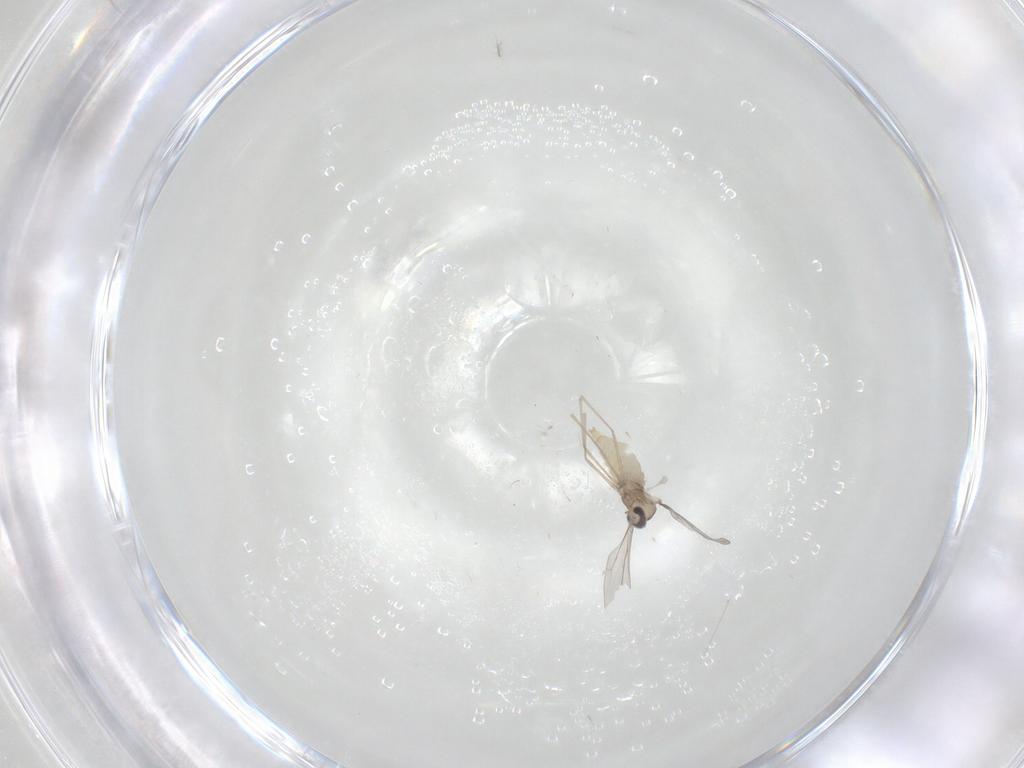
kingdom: Animalia
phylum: Arthropoda
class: Insecta
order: Diptera
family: Cecidomyiidae
